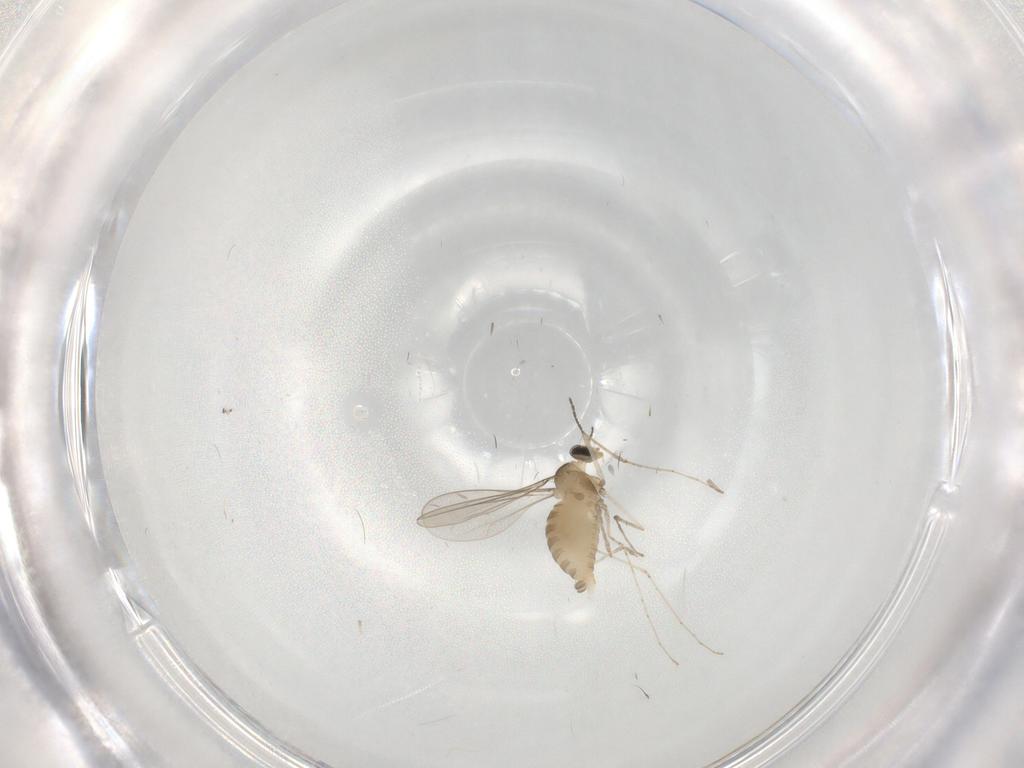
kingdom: Animalia
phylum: Arthropoda
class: Insecta
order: Diptera
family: Cecidomyiidae
